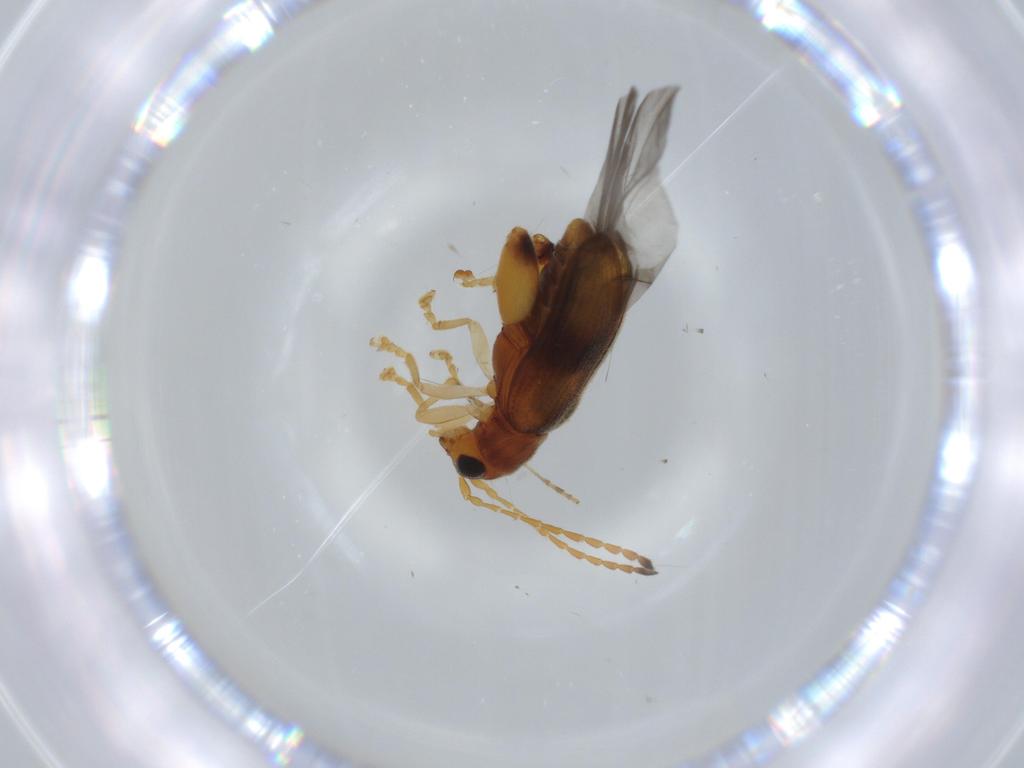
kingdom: Animalia
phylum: Arthropoda
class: Insecta
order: Coleoptera
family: Chrysomelidae
